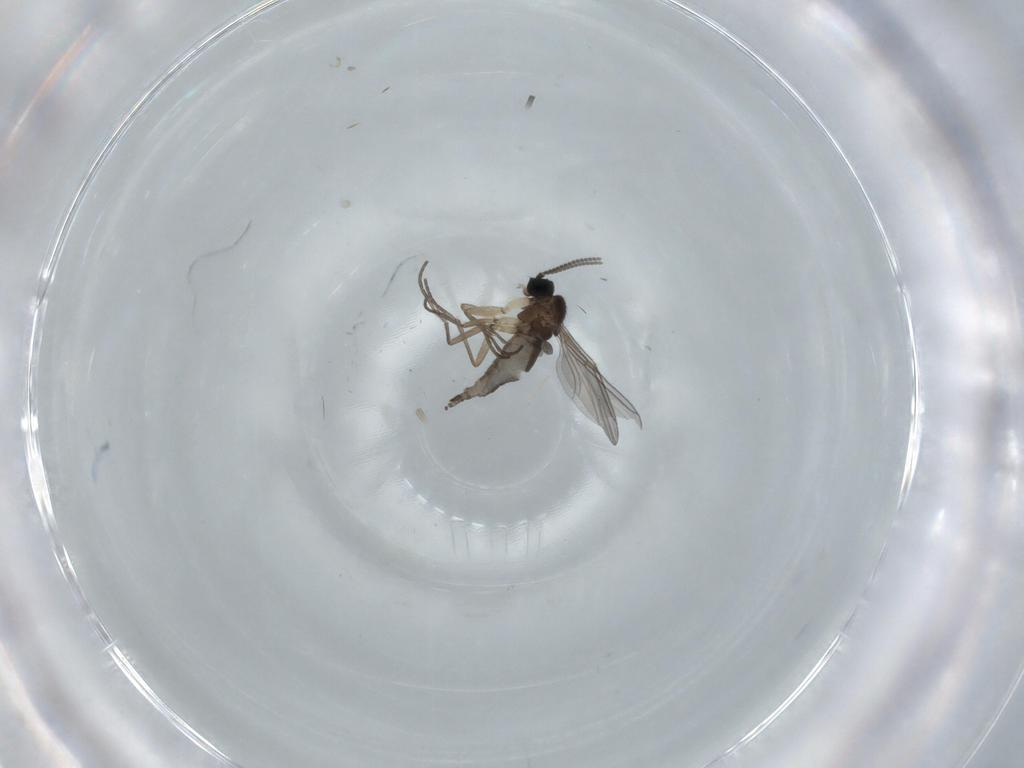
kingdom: Animalia
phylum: Arthropoda
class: Insecta
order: Diptera
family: Sciaridae
